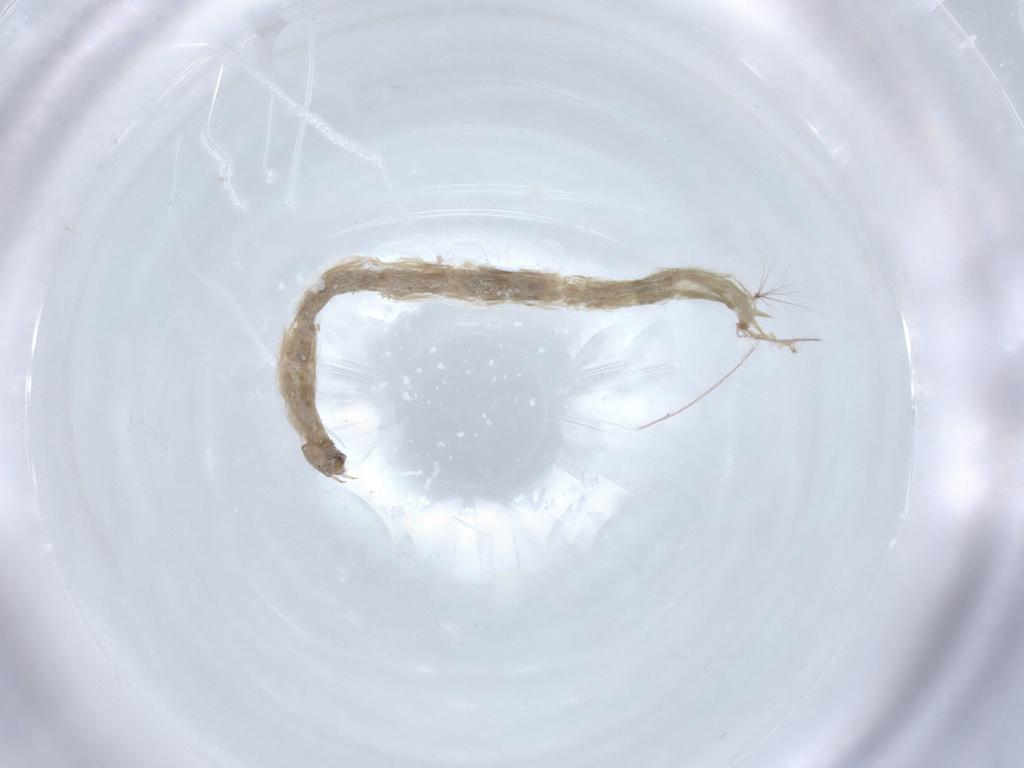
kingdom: Animalia
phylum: Arthropoda
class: Insecta
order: Diptera
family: Chironomidae
